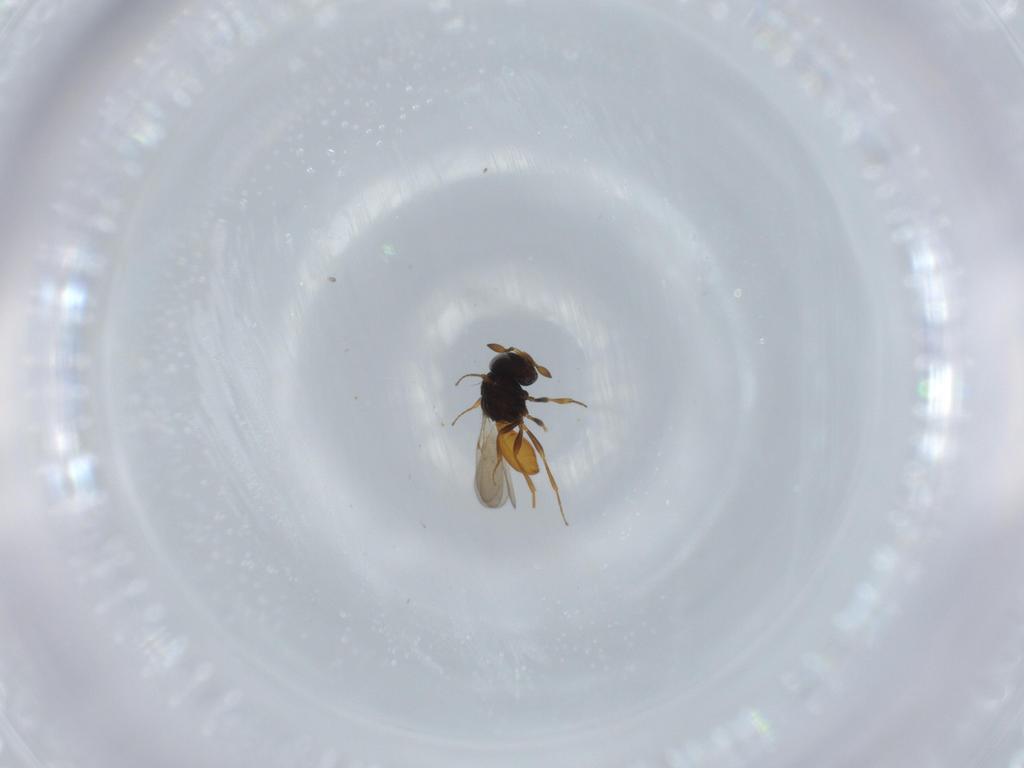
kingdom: Animalia
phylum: Arthropoda
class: Insecta
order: Hymenoptera
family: Scelionidae
